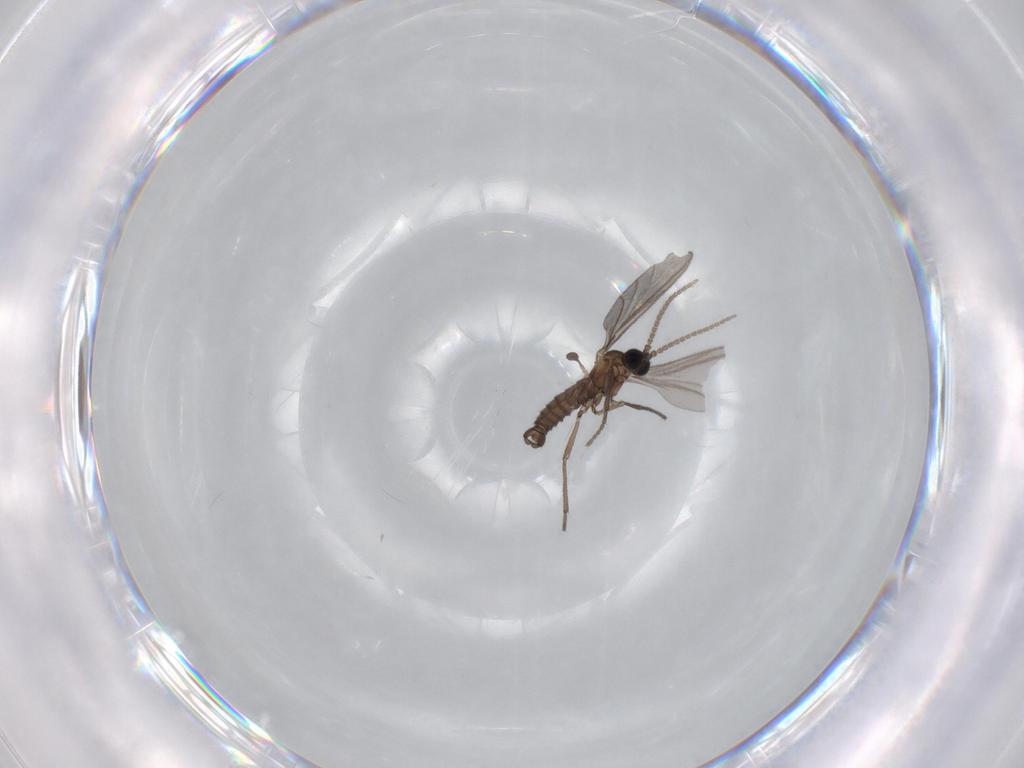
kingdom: Animalia
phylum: Arthropoda
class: Insecta
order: Diptera
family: Sciaridae
